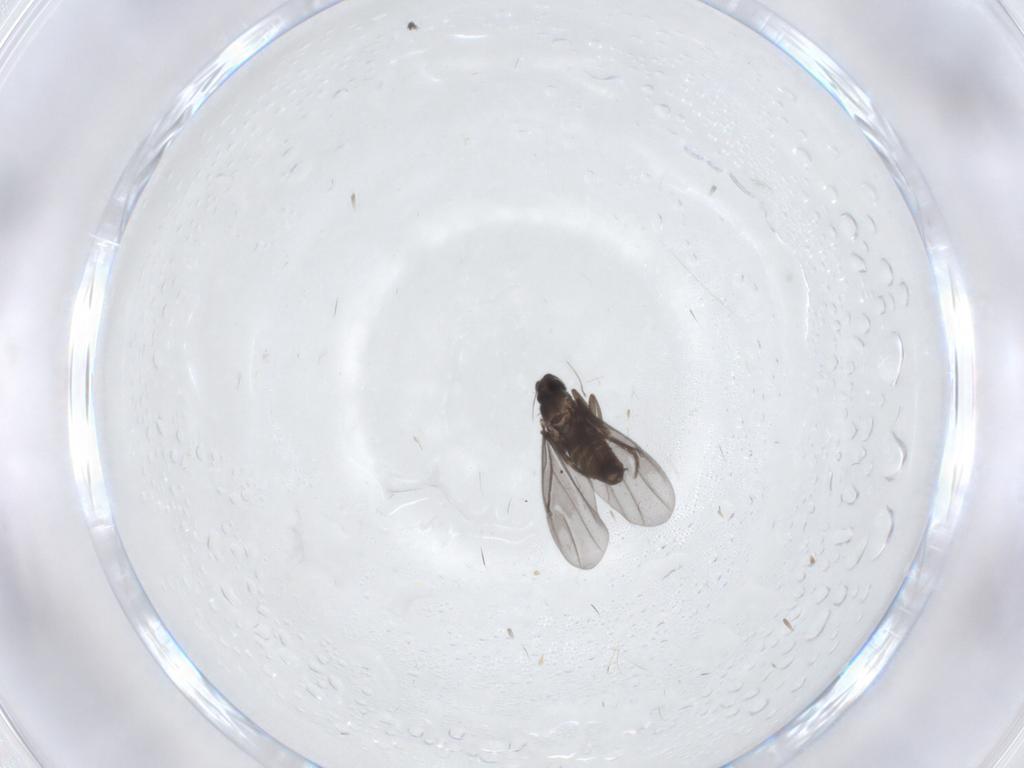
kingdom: Animalia
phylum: Arthropoda
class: Insecta
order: Diptera
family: Phoridae
